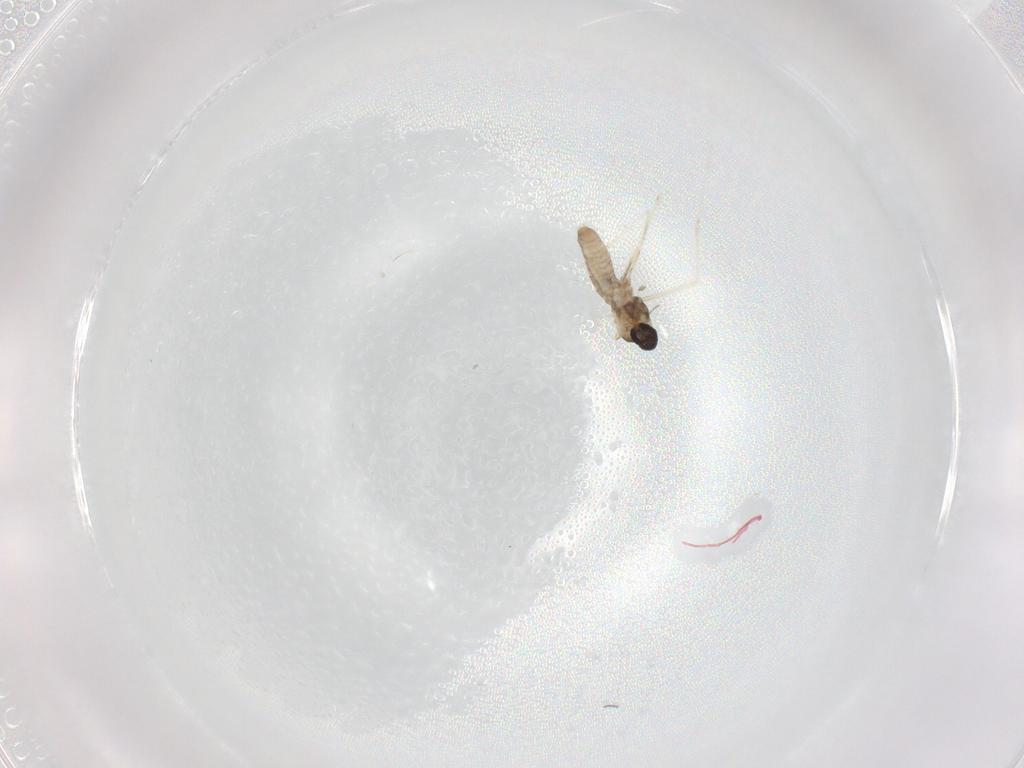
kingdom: Animalia
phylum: Arthropoda
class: Insecta
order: Diptera
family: Cecidomyiidae
